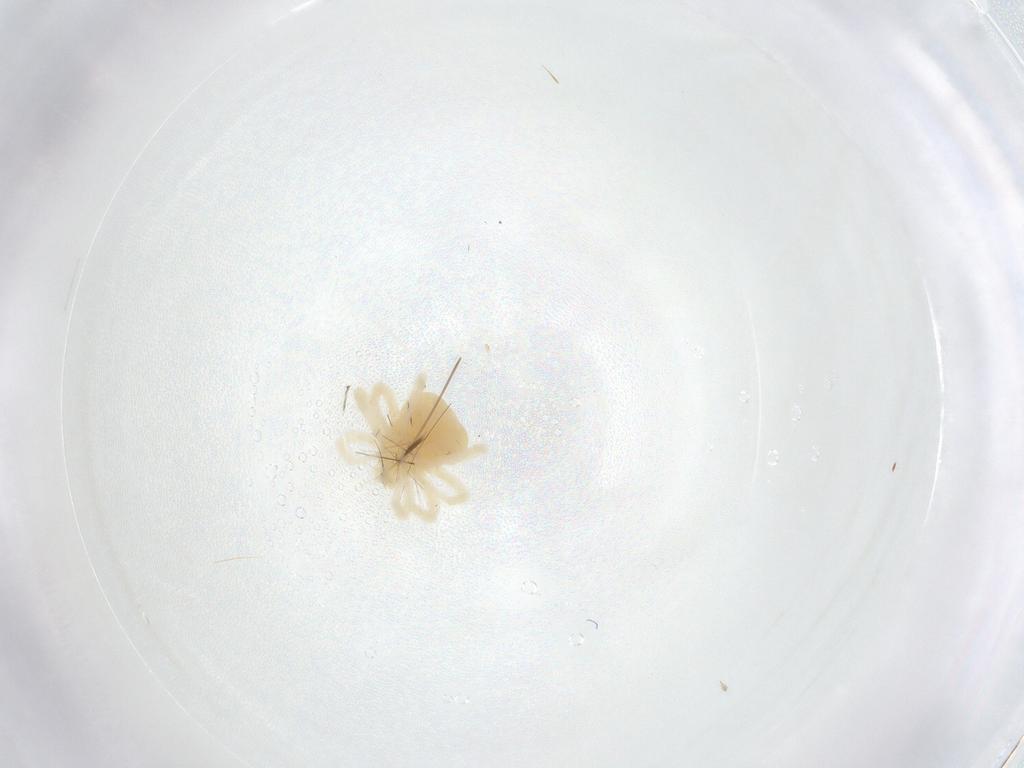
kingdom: Animalia
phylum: Arthropoda
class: Arachnida
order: Trombidiformes
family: Anystidae
